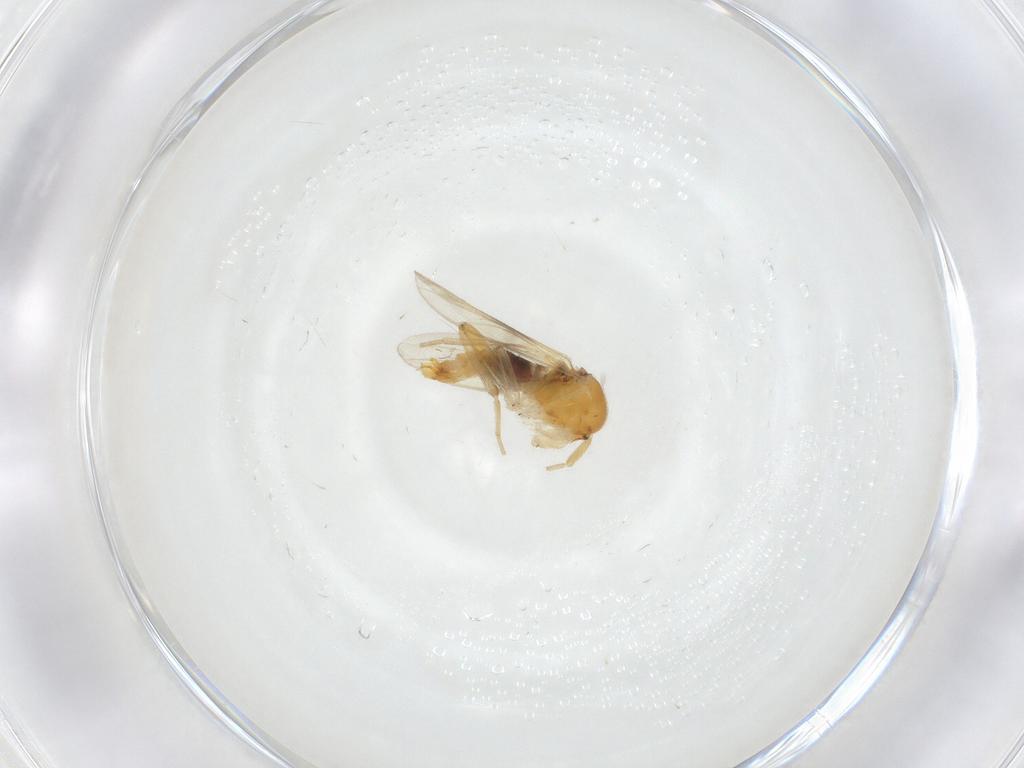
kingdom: Animalia
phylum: Arthropoda
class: Insecta
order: Diptera
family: Hybotidae
